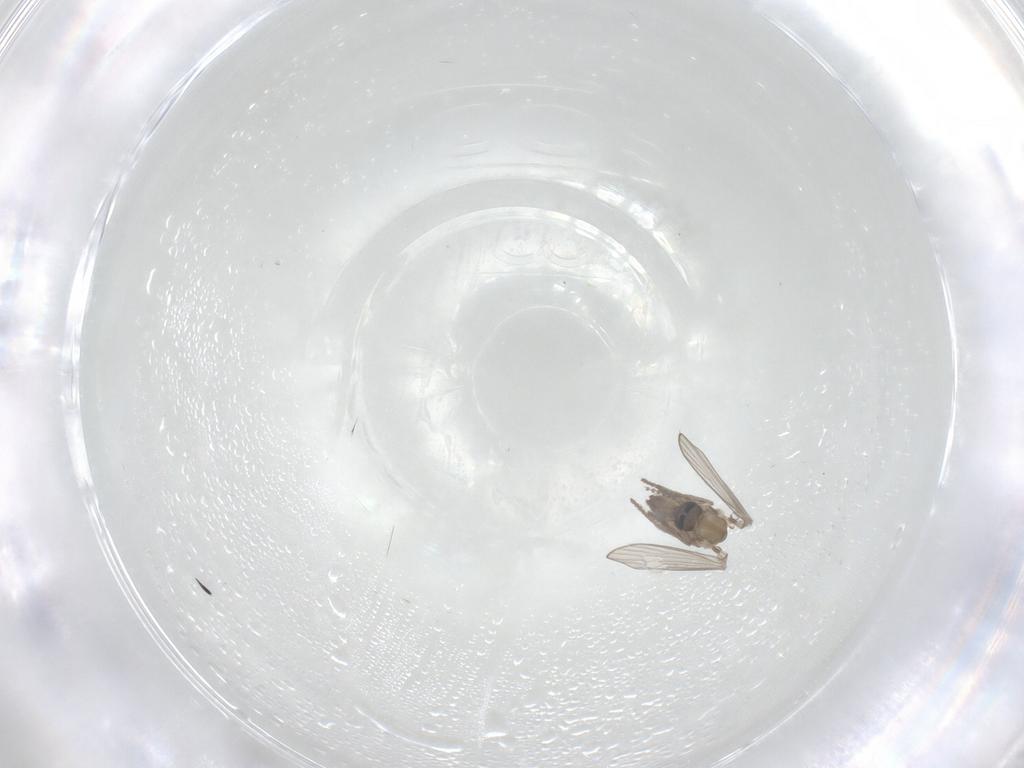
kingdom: Animalia
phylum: Arthropoda
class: Insecta
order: Diptera
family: Psychodidae
